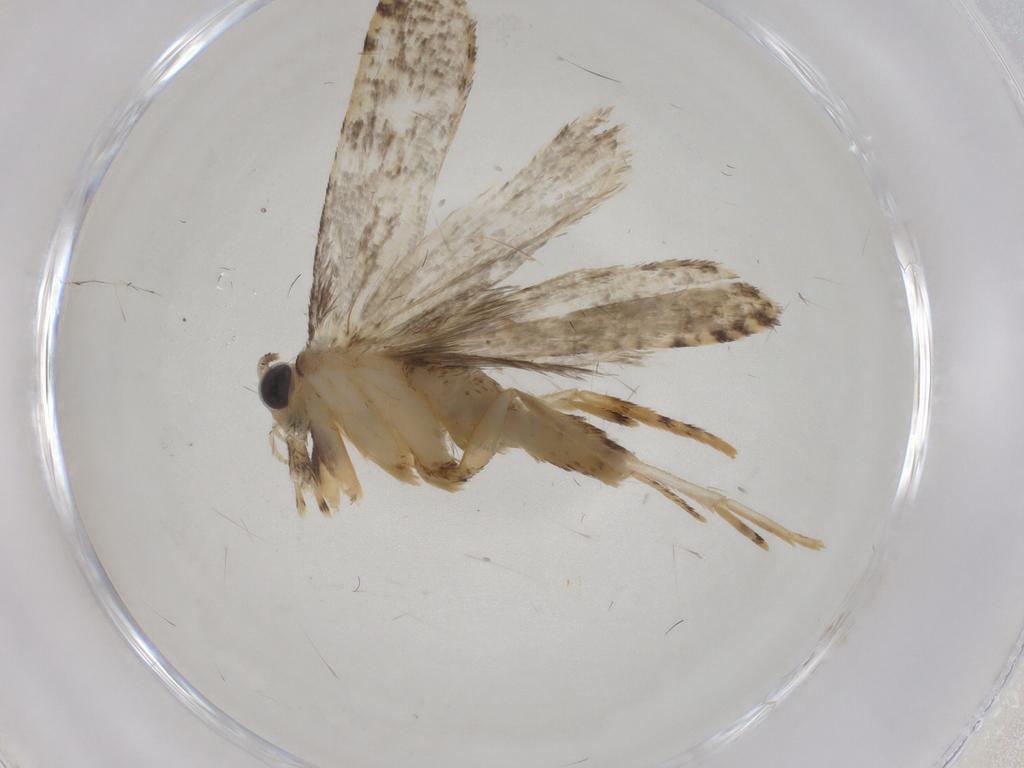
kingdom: Animalia
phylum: Arthropoda
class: Insecta
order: Lepidoptera
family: Tineidae
